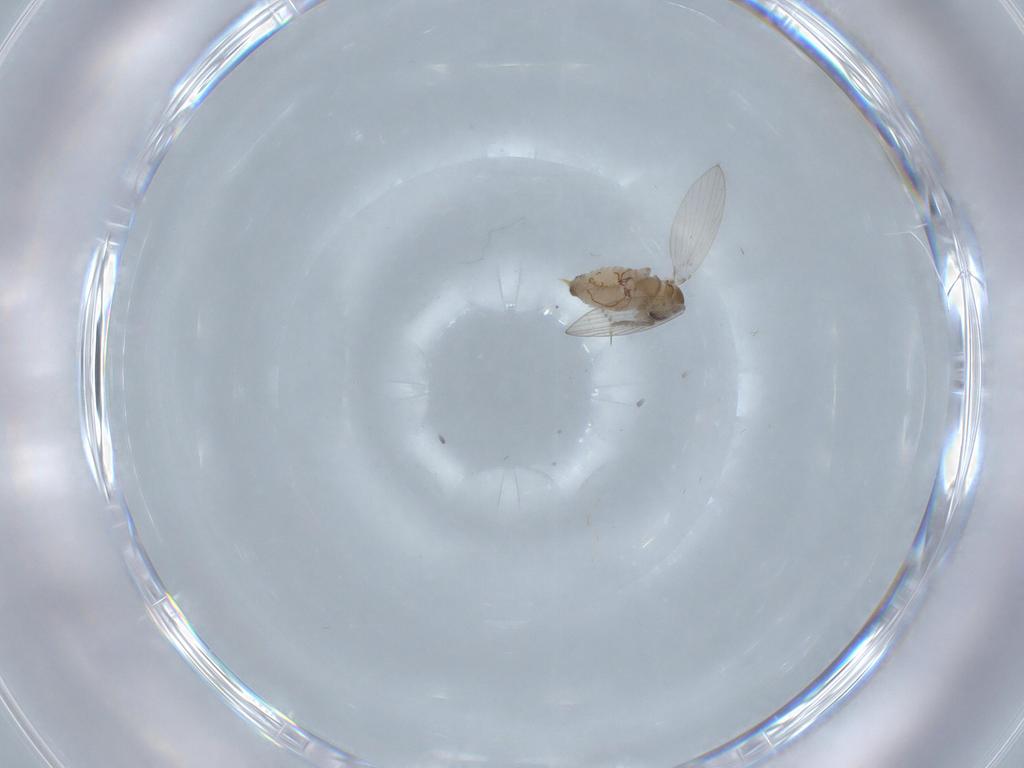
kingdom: Animalia
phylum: Arthropoda
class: Insecta
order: Diptera
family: Psychodidae
